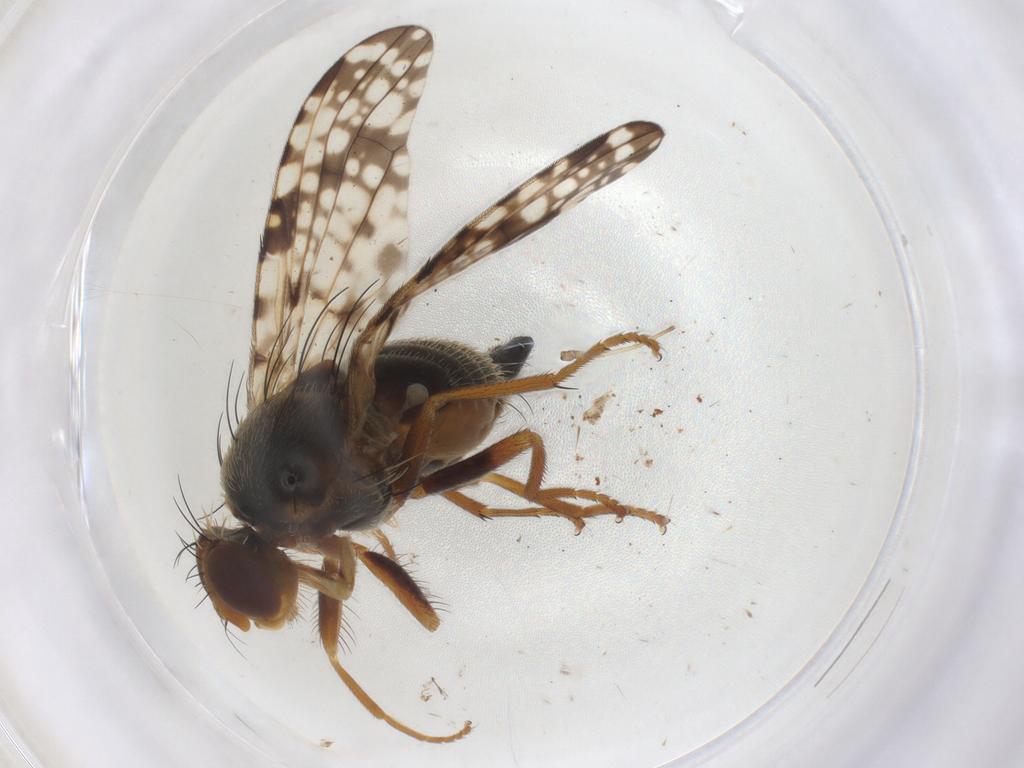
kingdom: Animalia
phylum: Arthropoda
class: Insecta
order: Diptera
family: Tephritidae
